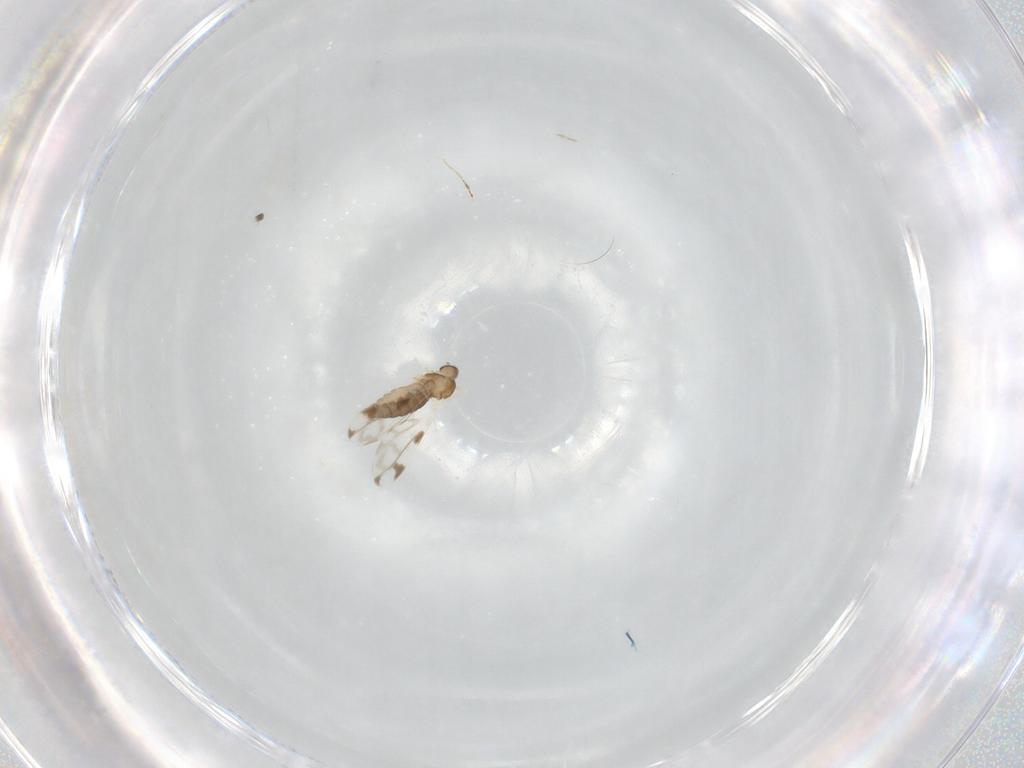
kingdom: Animalia
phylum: Arthropoda
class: Insecta
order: Diptera
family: Cecidomyiidae
